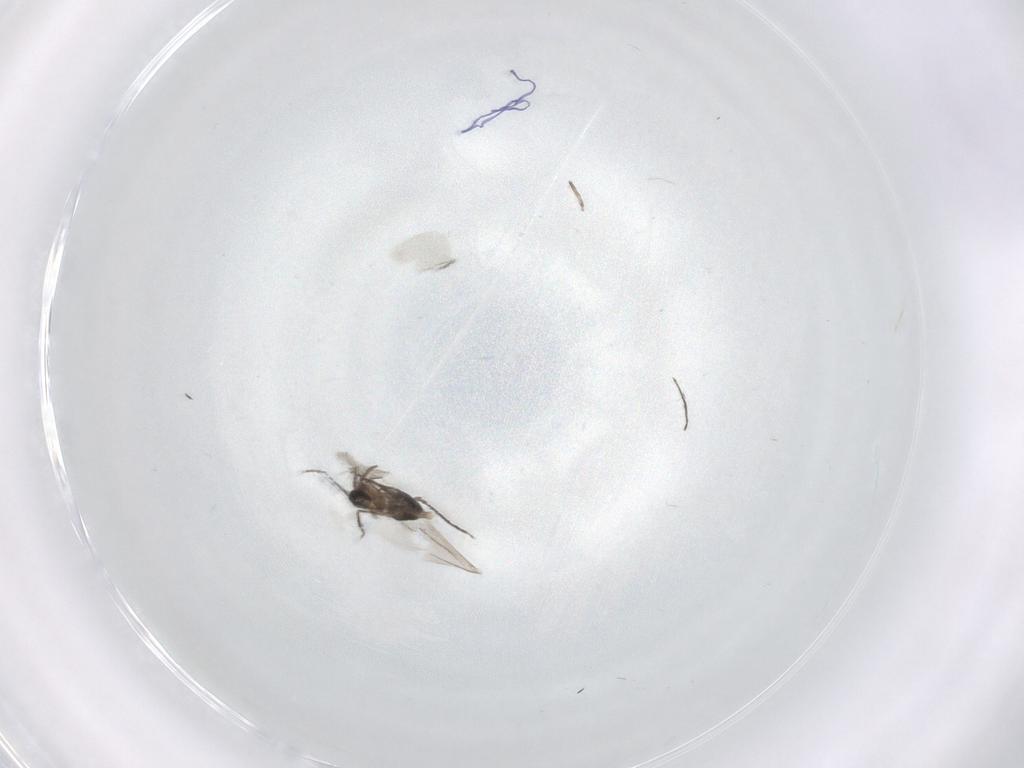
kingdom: Animalia
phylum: Arthropoda
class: Insecta
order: Diptera
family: Cecidomyiidae
